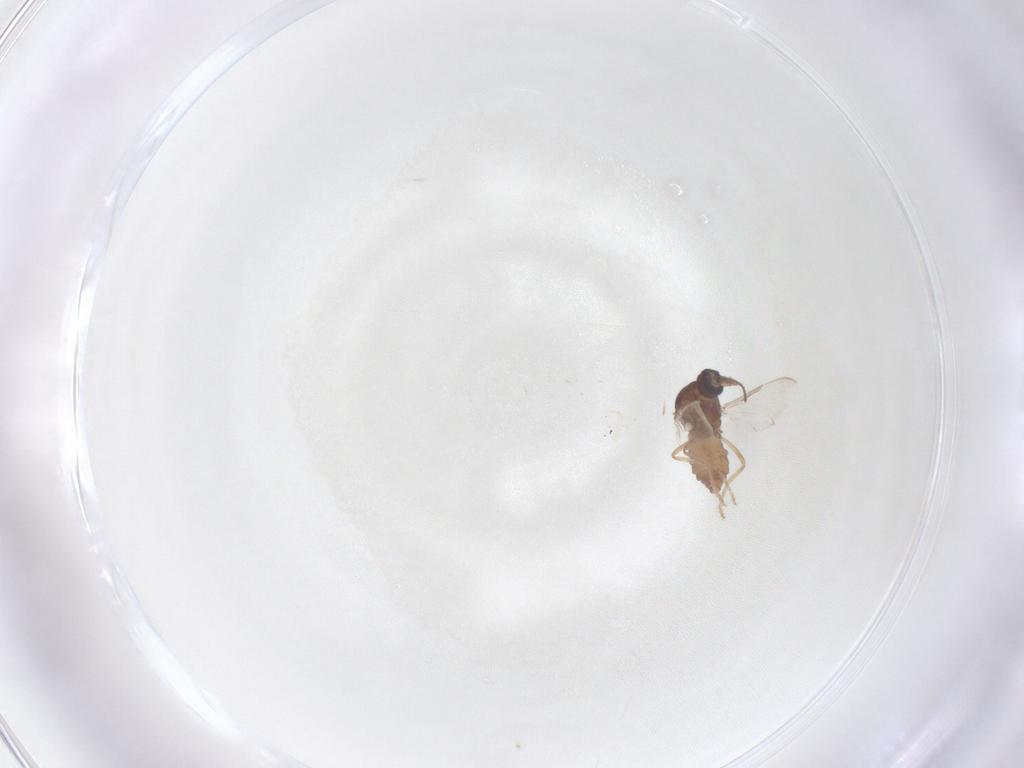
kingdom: Animalia
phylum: Arthropoda
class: Insecta
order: Diptera
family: Ceratopogonidae
